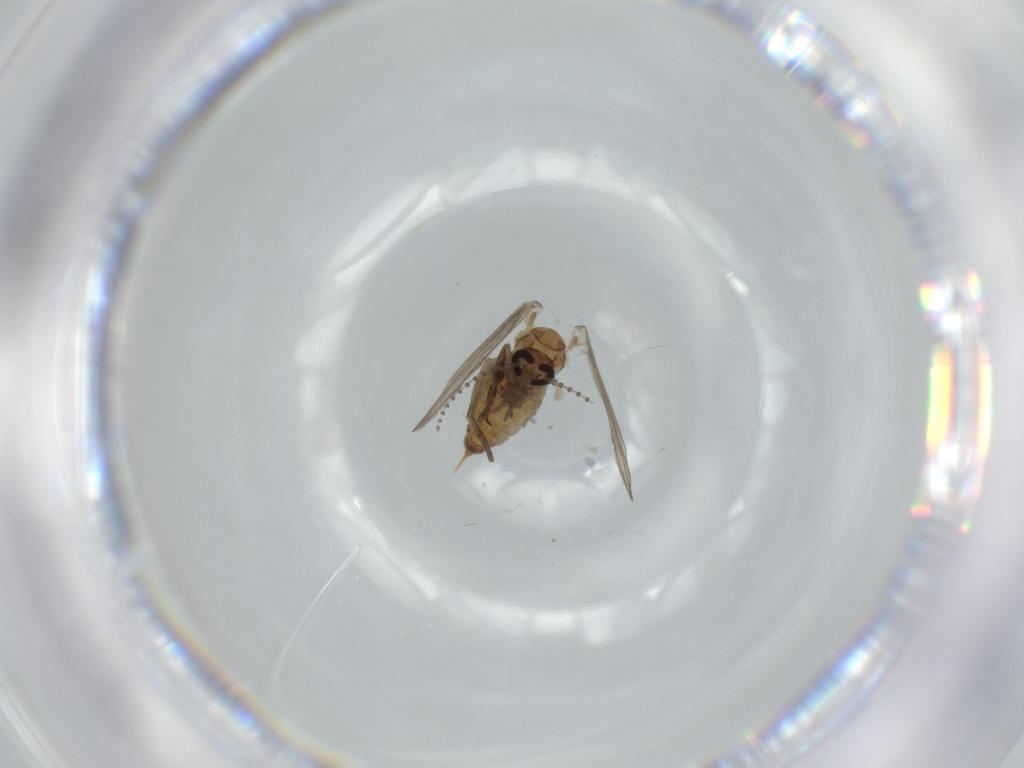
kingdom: Animalia
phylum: Arthropoda
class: Insecta
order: Diptera
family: Psychodidae
